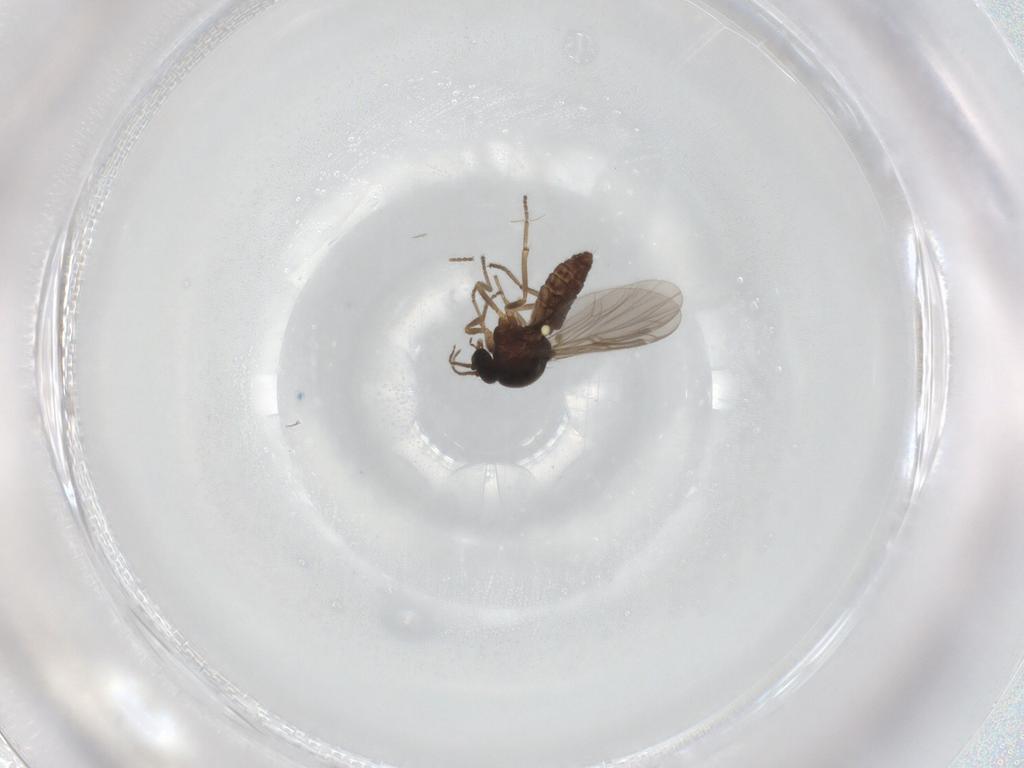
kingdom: Animalia
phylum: Arthropoda
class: Insecta
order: Diptera
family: Ceratopogonidae
